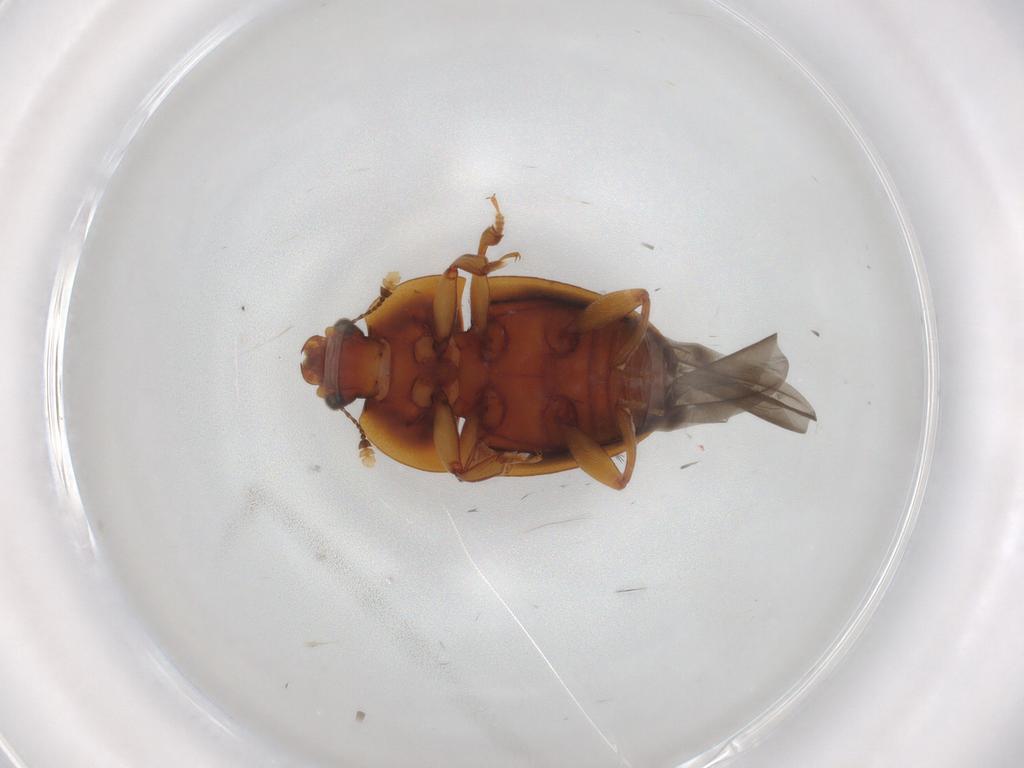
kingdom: Animalia
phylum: Arthropoda
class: Insecta
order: Coleoptera
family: Nitidulidae
